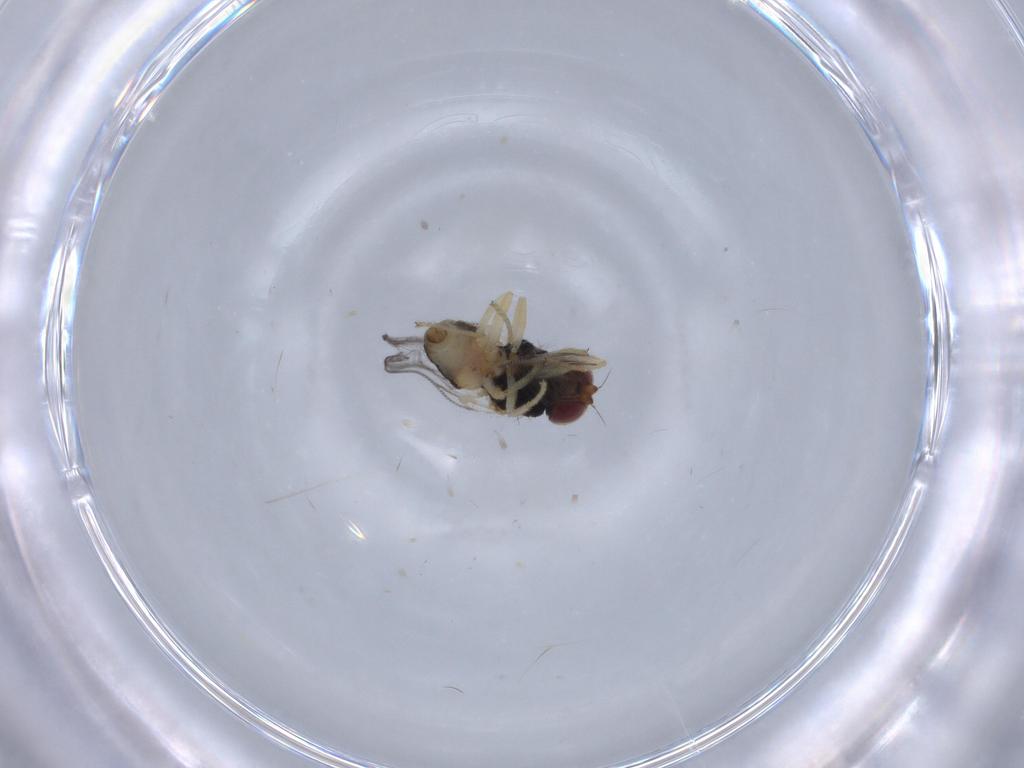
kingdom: Animalia
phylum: Arthropoda
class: Insecta
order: Diptera
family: Chloropidae
